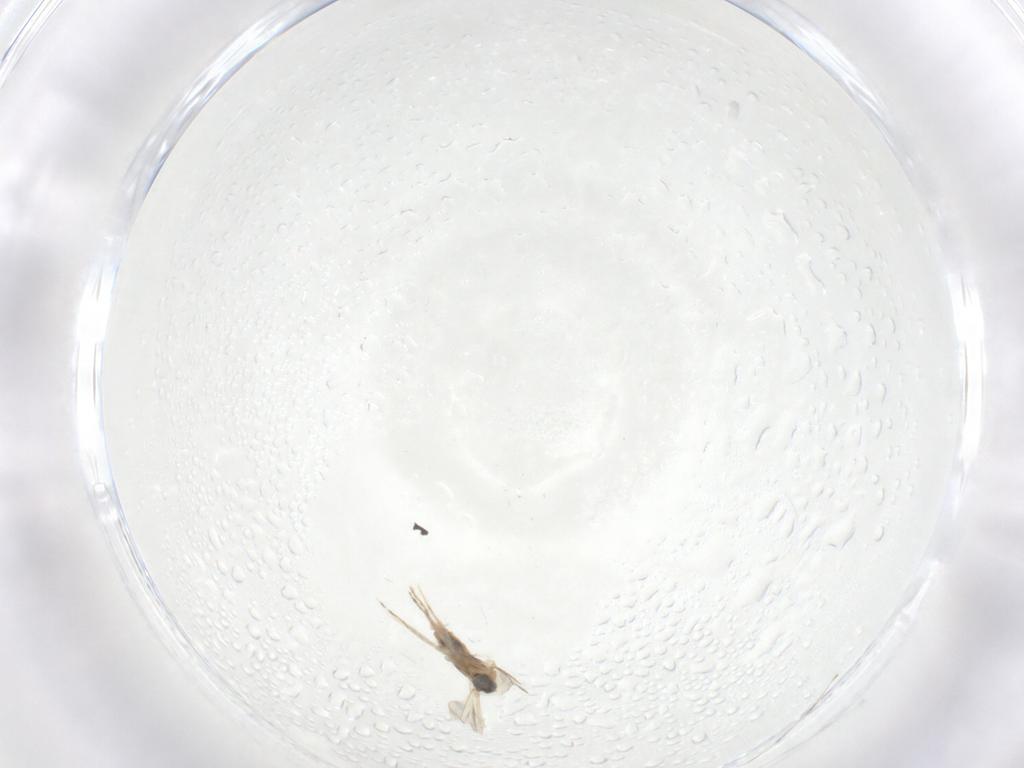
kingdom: Animalia
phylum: Arthropoda
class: Insecta
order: Diptera
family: Cecidomyiidae
